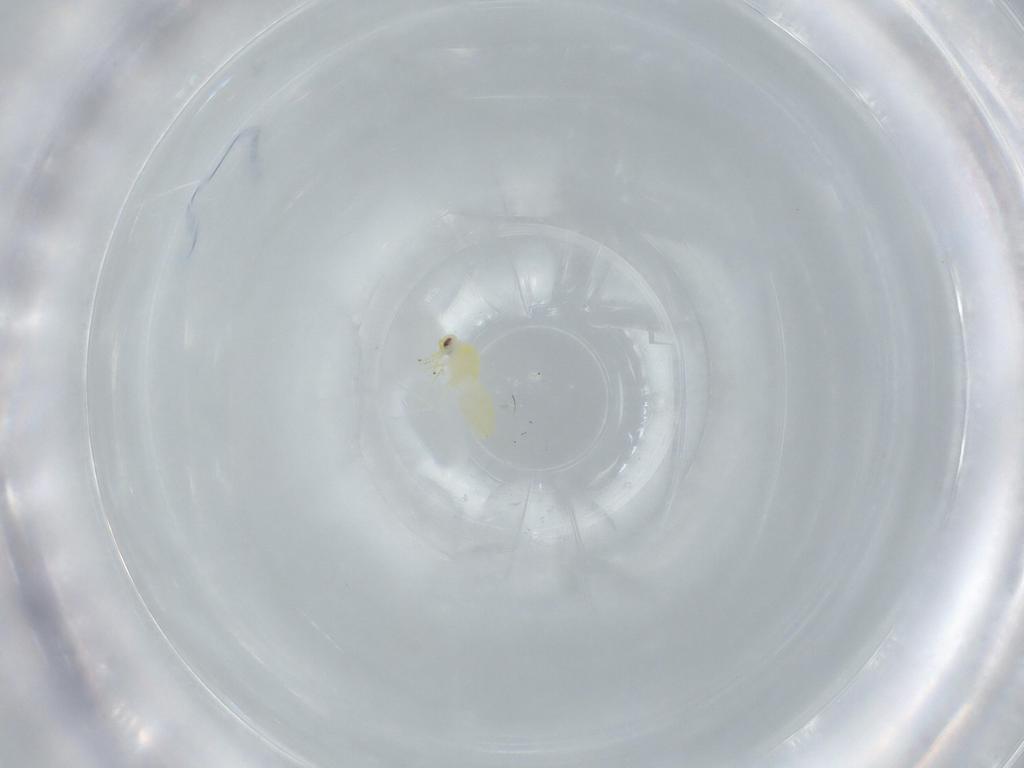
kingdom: Animalia
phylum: Arthropoda
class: Insecta
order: Hemiptera
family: Aleyrodidae
